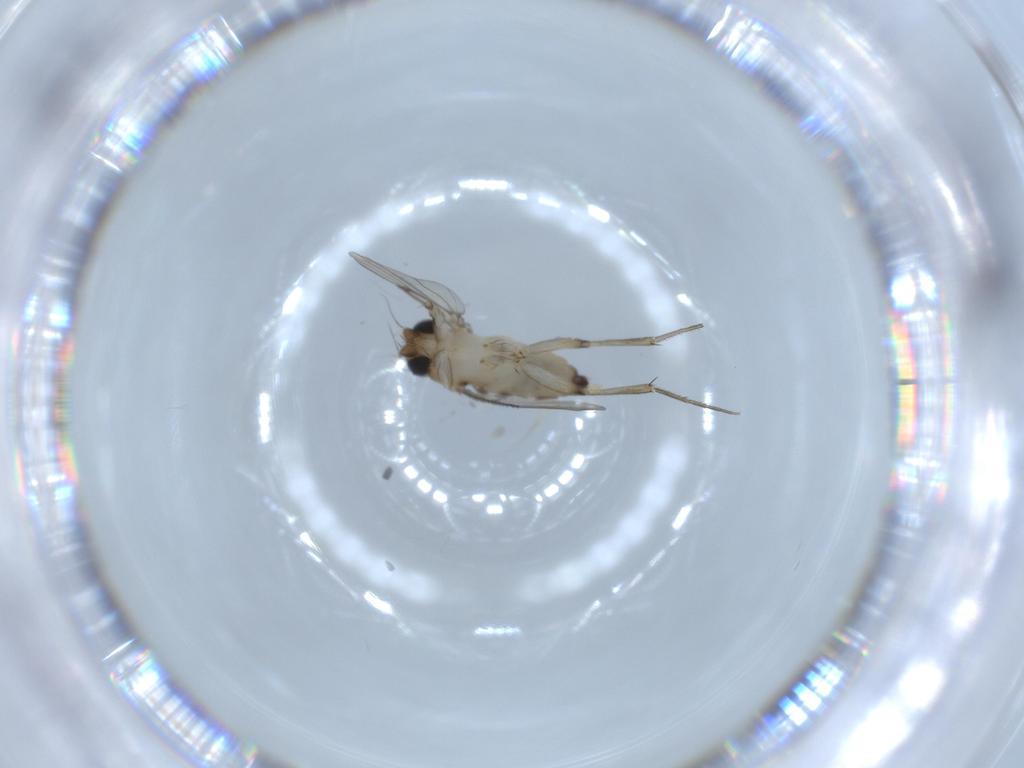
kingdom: Animalia
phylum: Arthropoda
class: Insecta
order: Diptera
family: Phoridae
